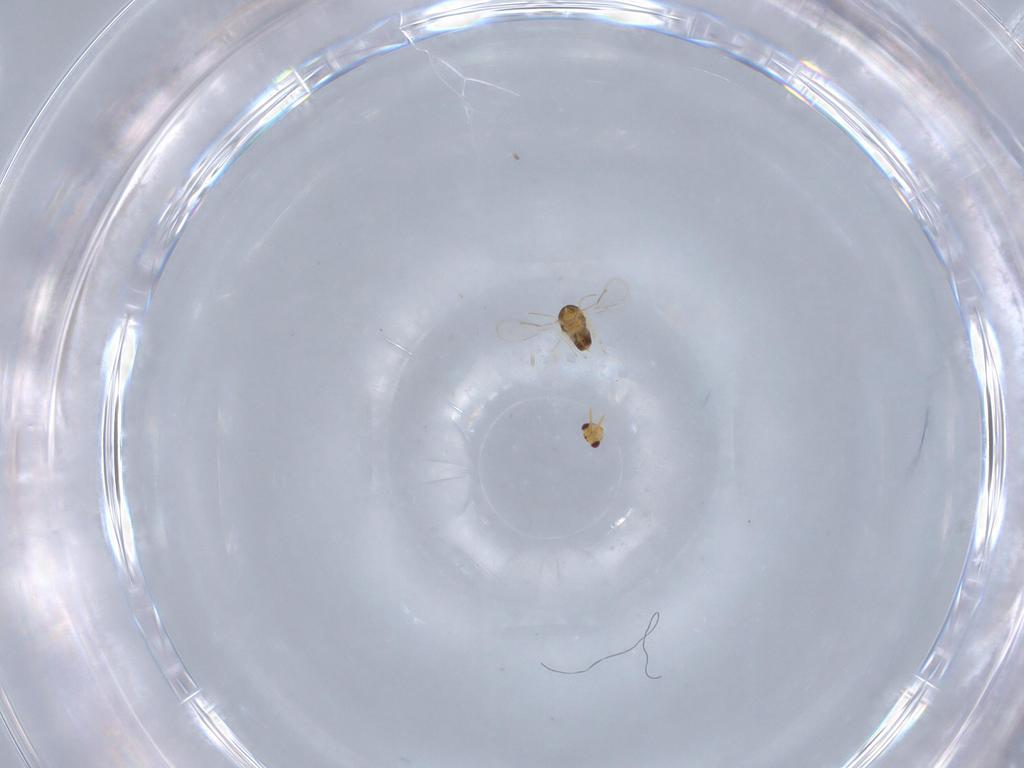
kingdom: Animalia
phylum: Arthropoda
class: Insecta
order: Hymenoptera
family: Aphelinidae
